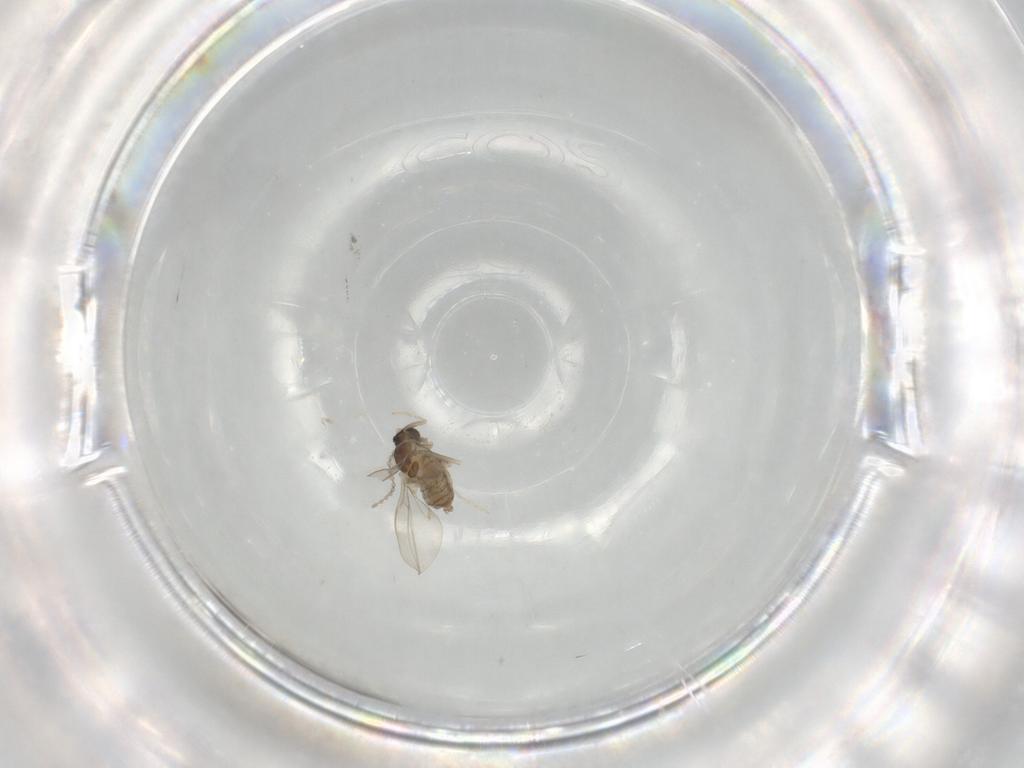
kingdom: Animalia
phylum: Arthropoda
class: Insecta
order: Diptera
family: Cecidomyiidae
